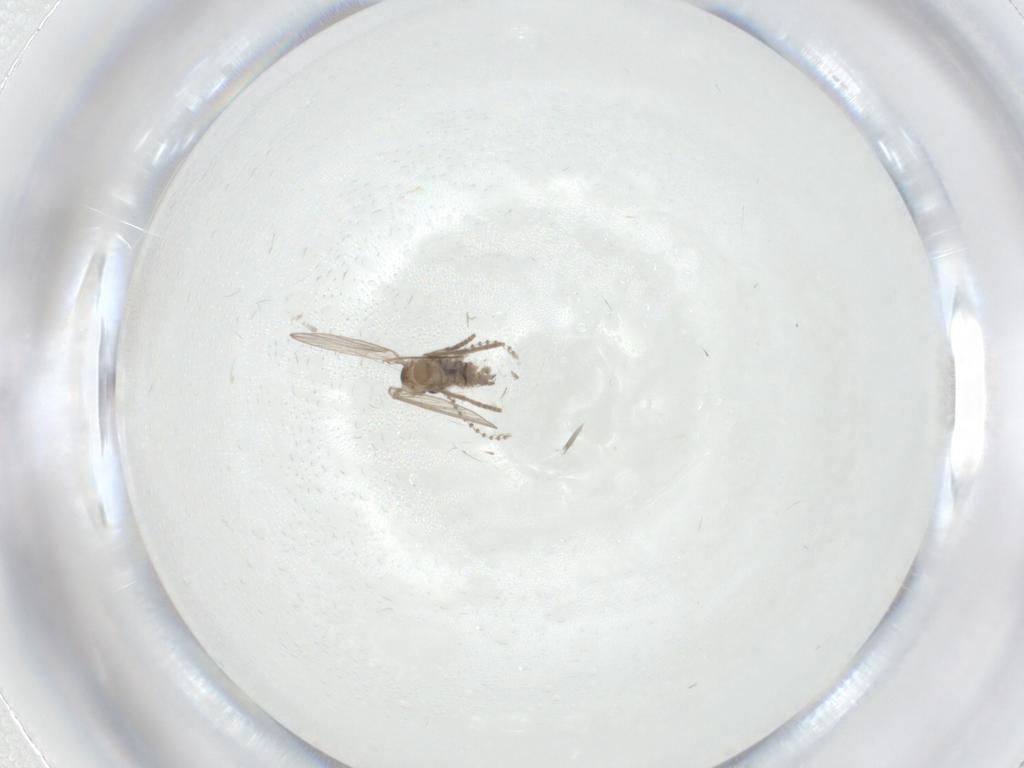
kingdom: Animalia
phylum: Arthropoda
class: Insecta
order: Diptera
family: Psychodidae
